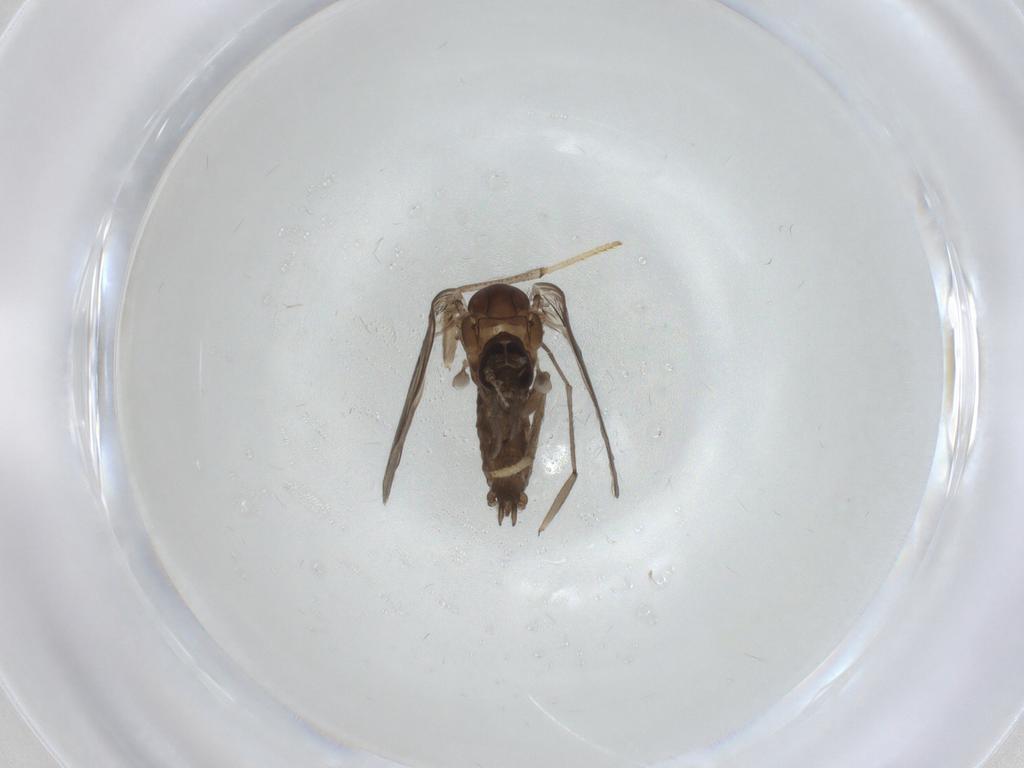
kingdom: Animalia
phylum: Arthropoda
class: Insecta
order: Diptera
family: Psychodidae
